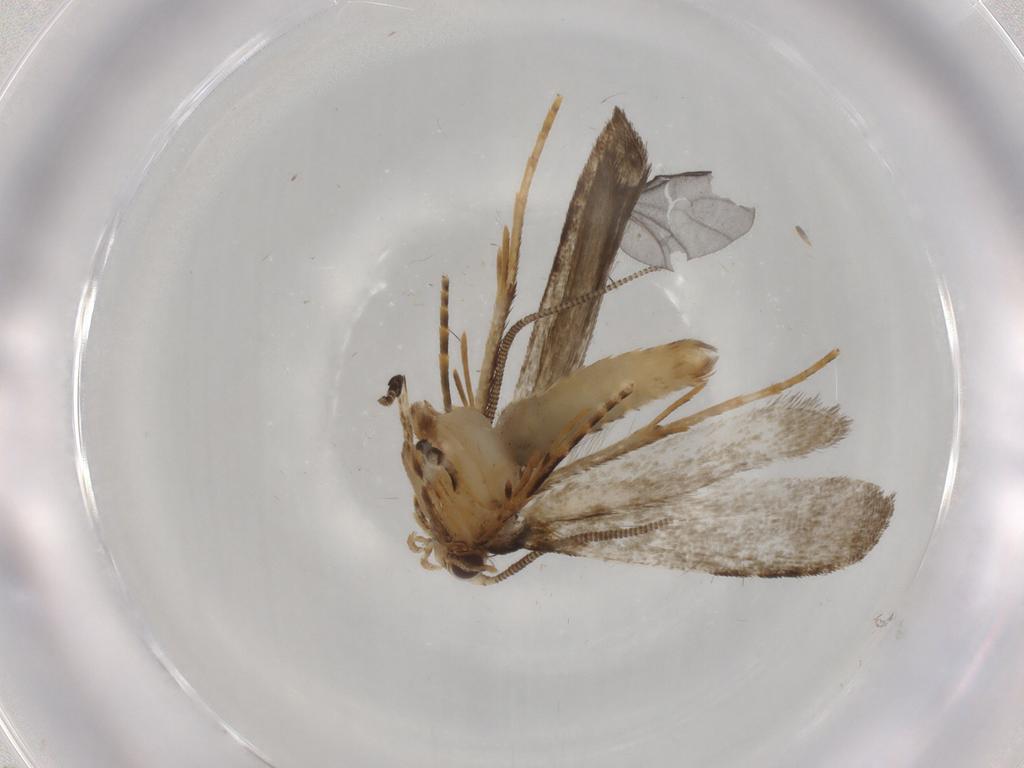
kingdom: Animalia
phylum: Arthropoda
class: Insecta
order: Lepidoptera
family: Tineidae
